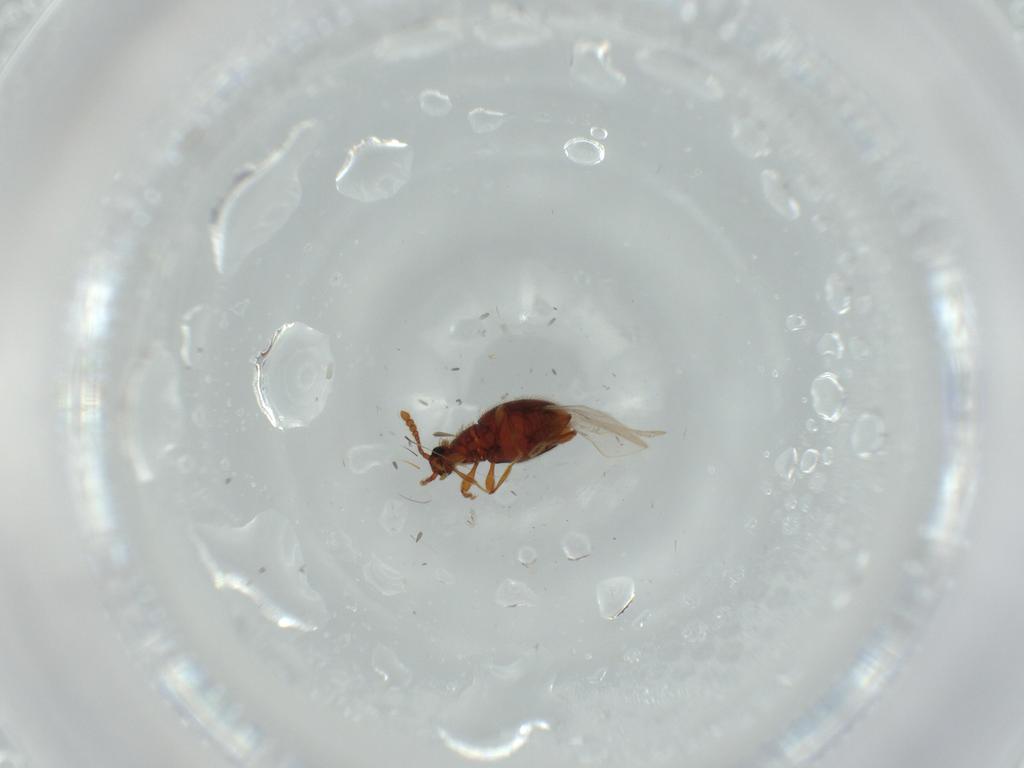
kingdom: Animalia
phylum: Arthropoda
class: Insecta
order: Coleoptera
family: Staphylinidae
